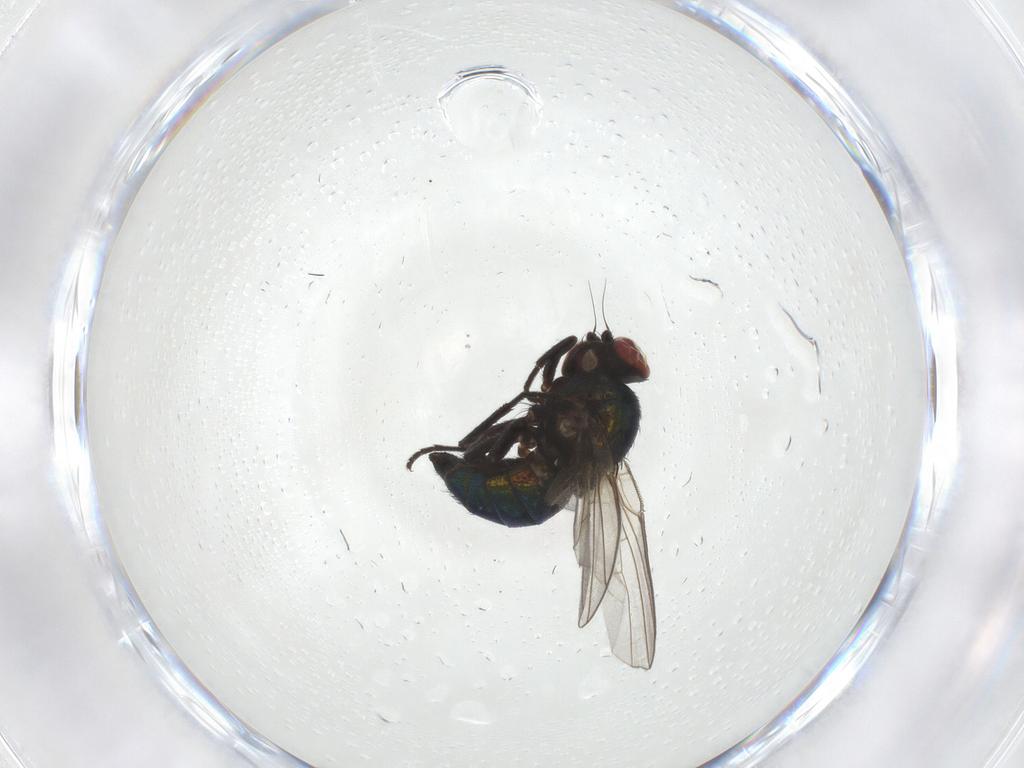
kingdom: Animalia
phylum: Arthropoda
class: Insecta
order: Diptera
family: Agromyzidae
